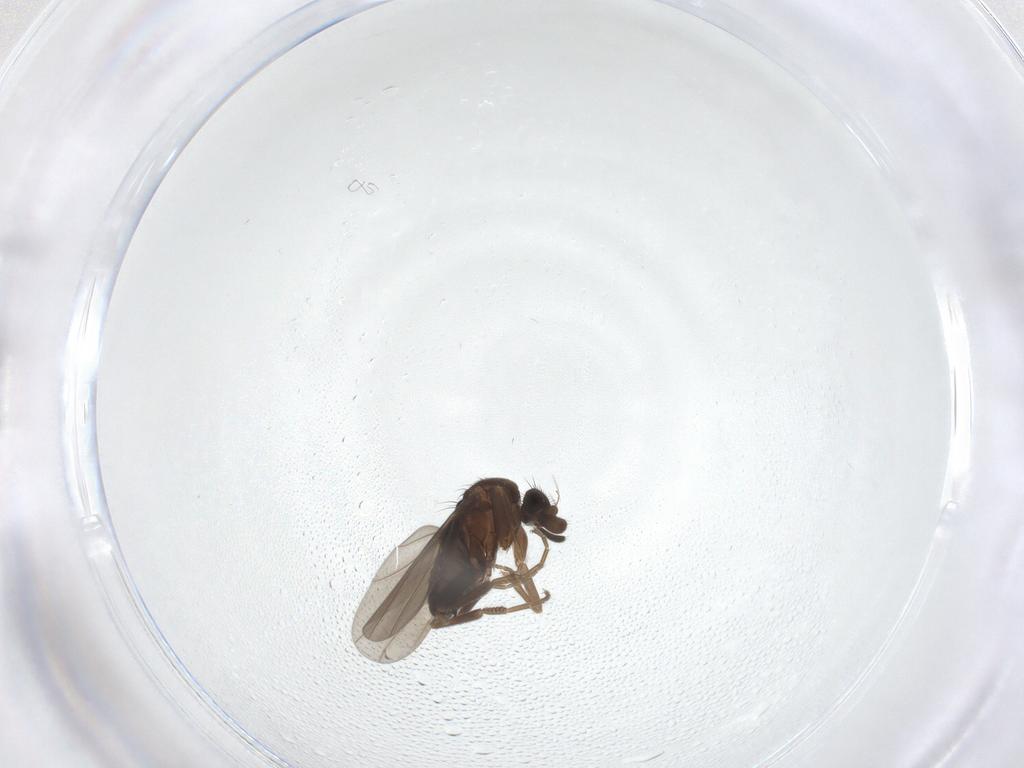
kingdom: Animalia
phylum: Arthropoda
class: Insecta
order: Diptera
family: Phoridae
